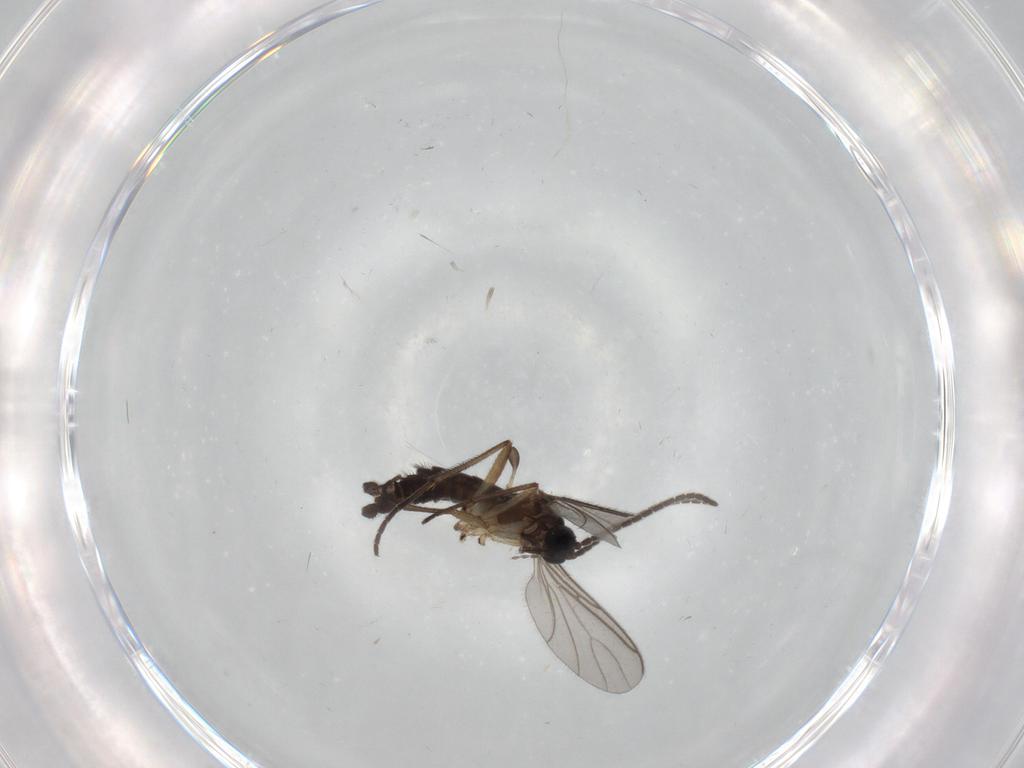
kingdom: Animalia
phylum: Arthropoda
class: Insecta
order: Diptera
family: Sciaridae
